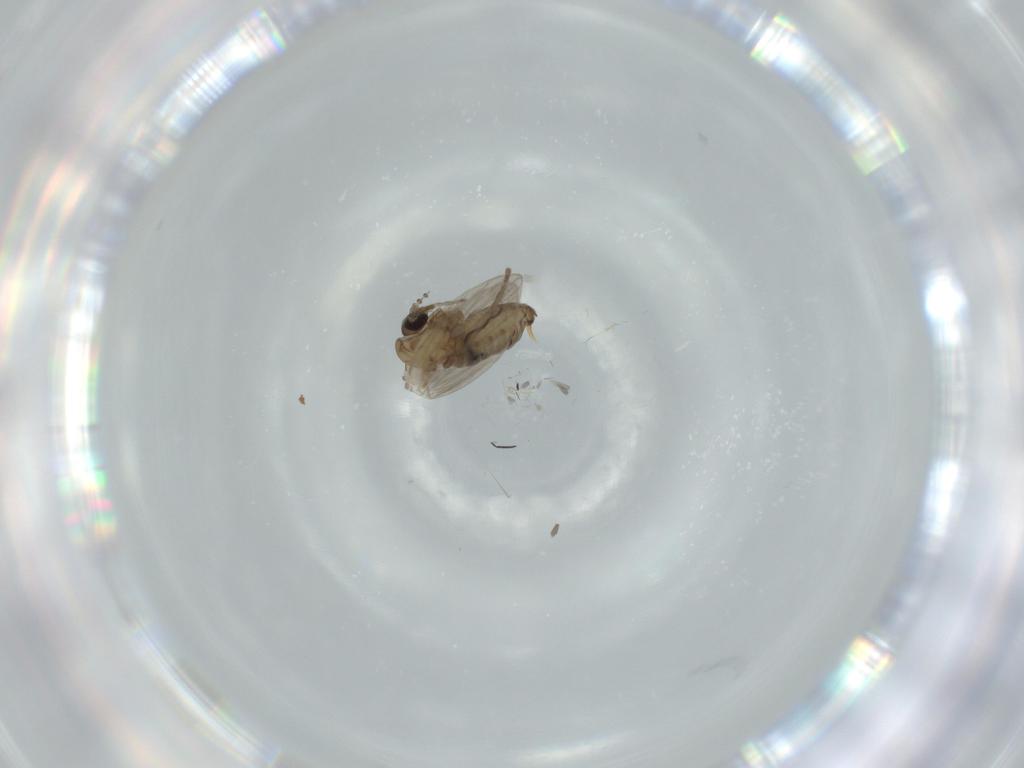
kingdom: Animalia
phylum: Arthropoda
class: Insecta
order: Diptera
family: Psychodidae
